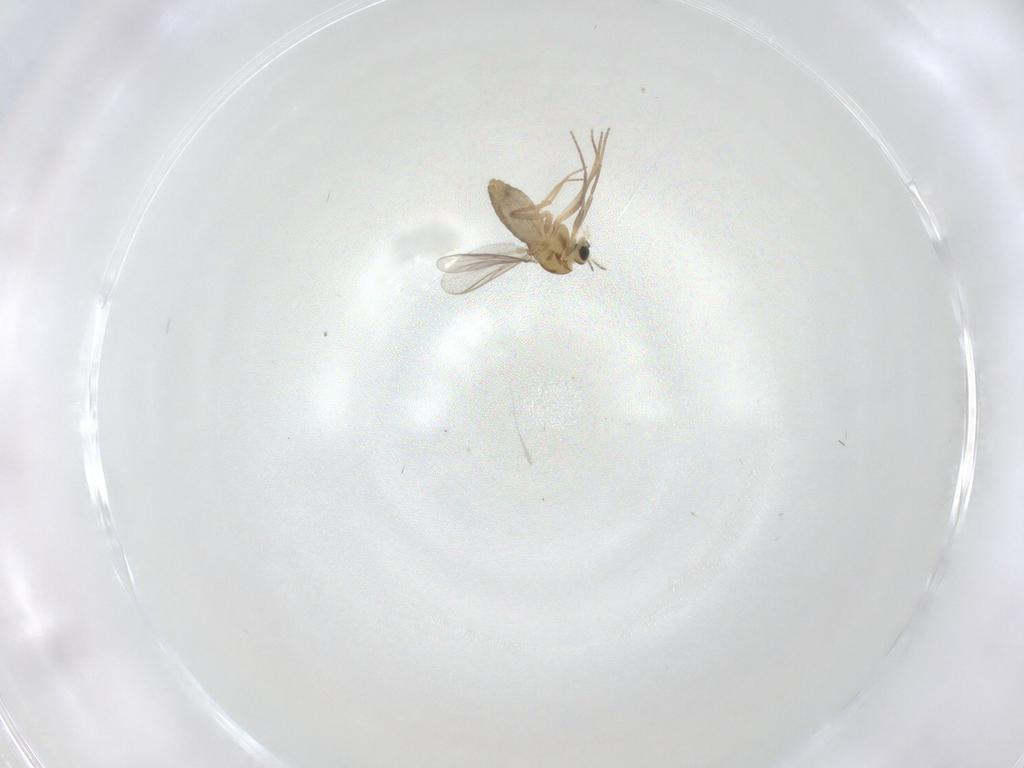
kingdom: Animalia
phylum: Arthropoda
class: Insecta
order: Diptera
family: Chironomidae
